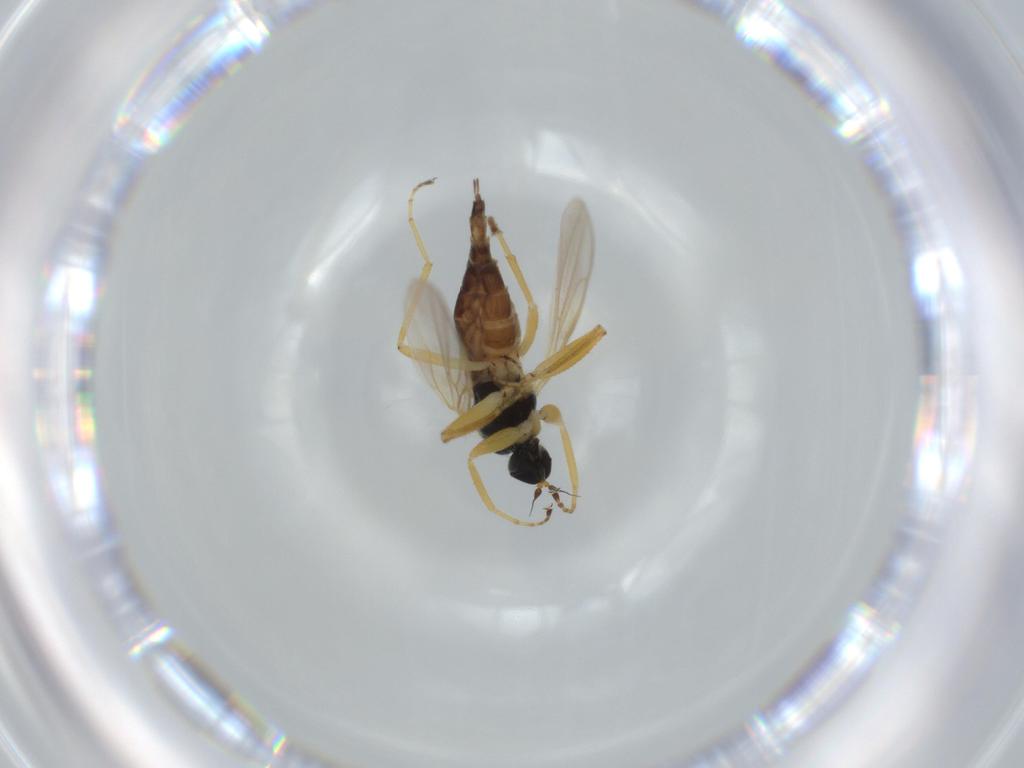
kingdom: Animalia
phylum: Arthropoda
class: Insecta
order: Diptera
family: Hybotidae
